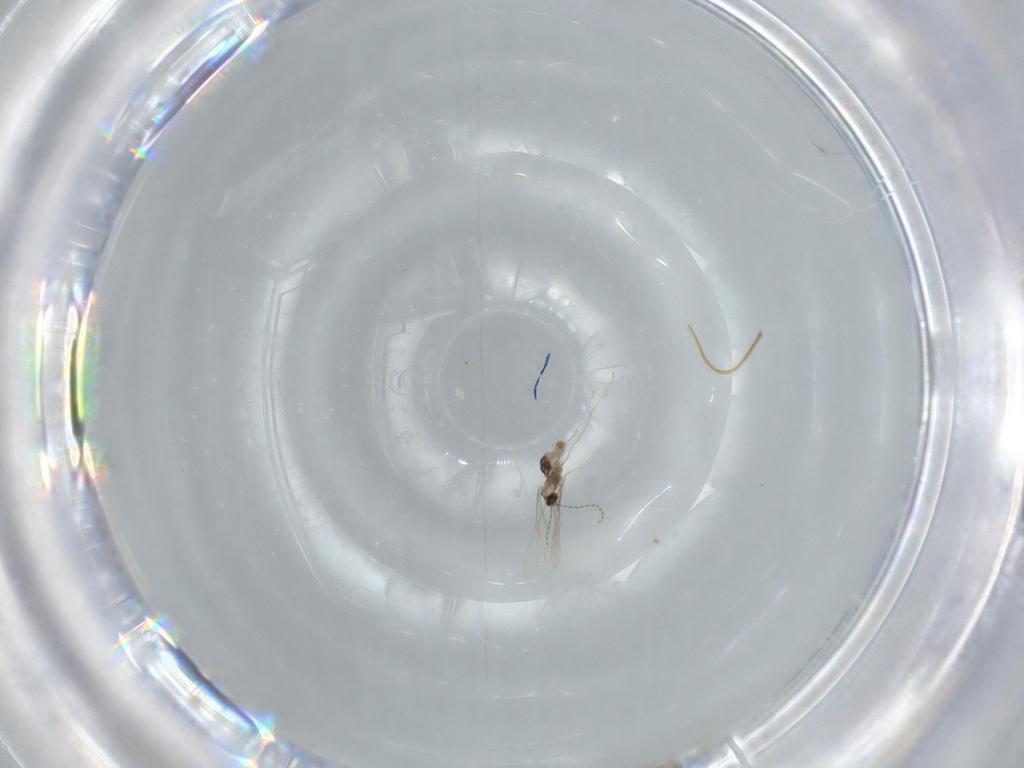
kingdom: Animalia
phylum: Arthropoda
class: Insecta
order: Diptera
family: Cecidomyiidae
